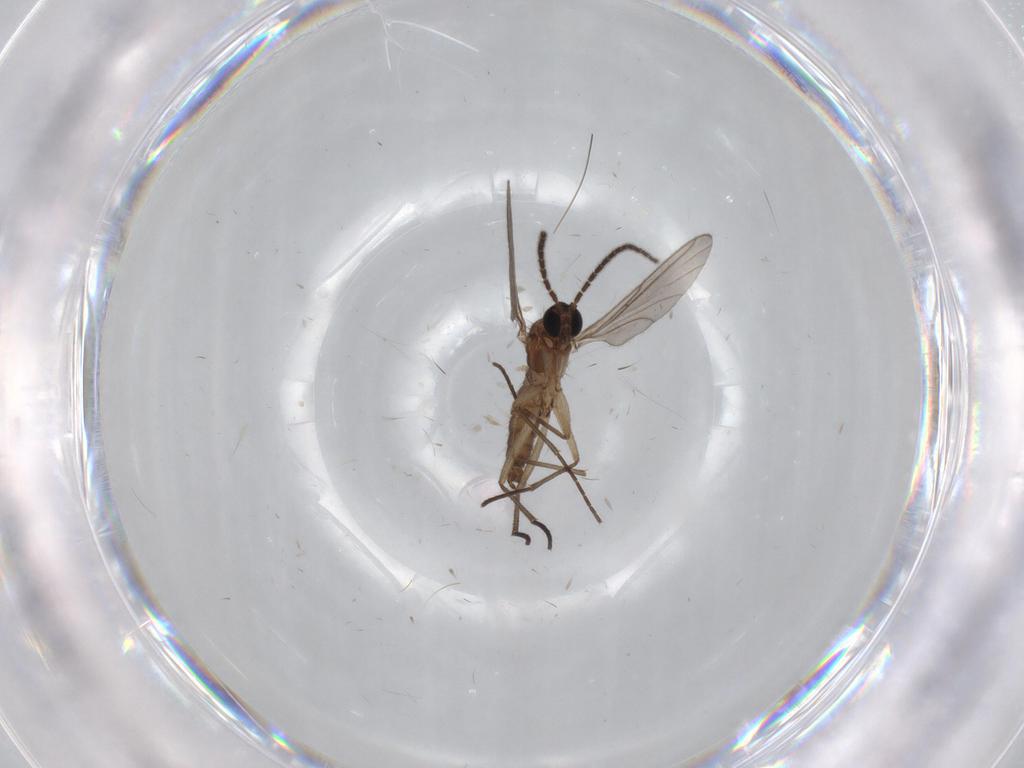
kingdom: Animalia
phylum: Arthropoda
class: Insecta
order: Diptera
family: Sciaridae
